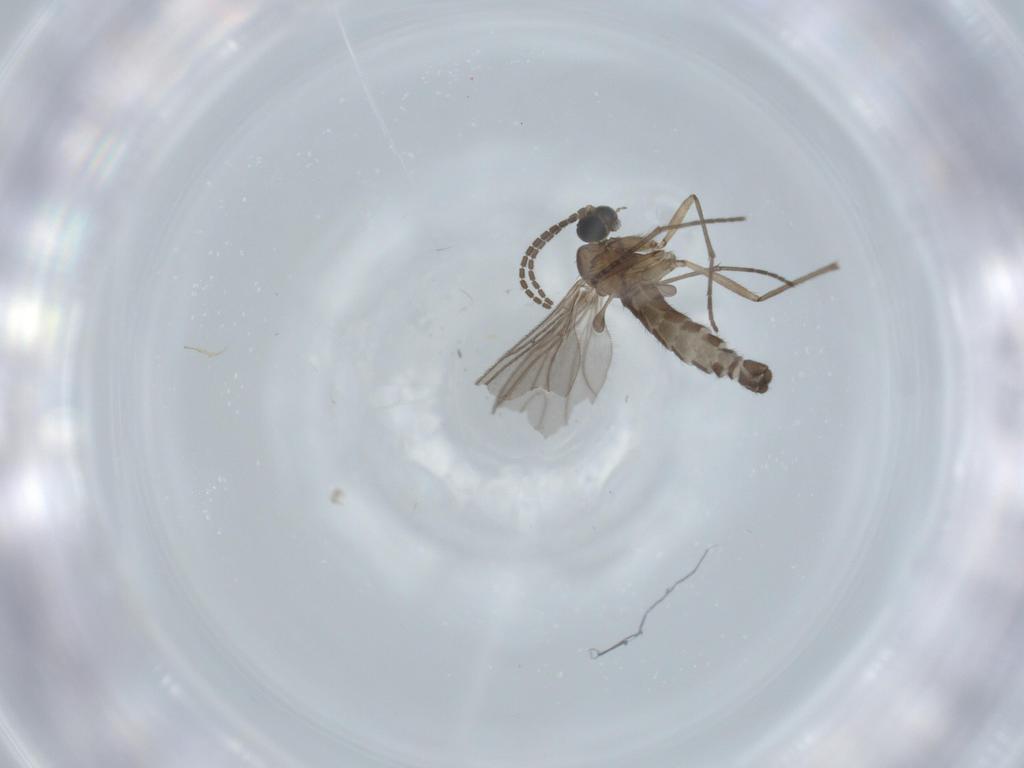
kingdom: Animalia
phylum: Arthropoda
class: Insecta
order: Diptera
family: Sciaridae
